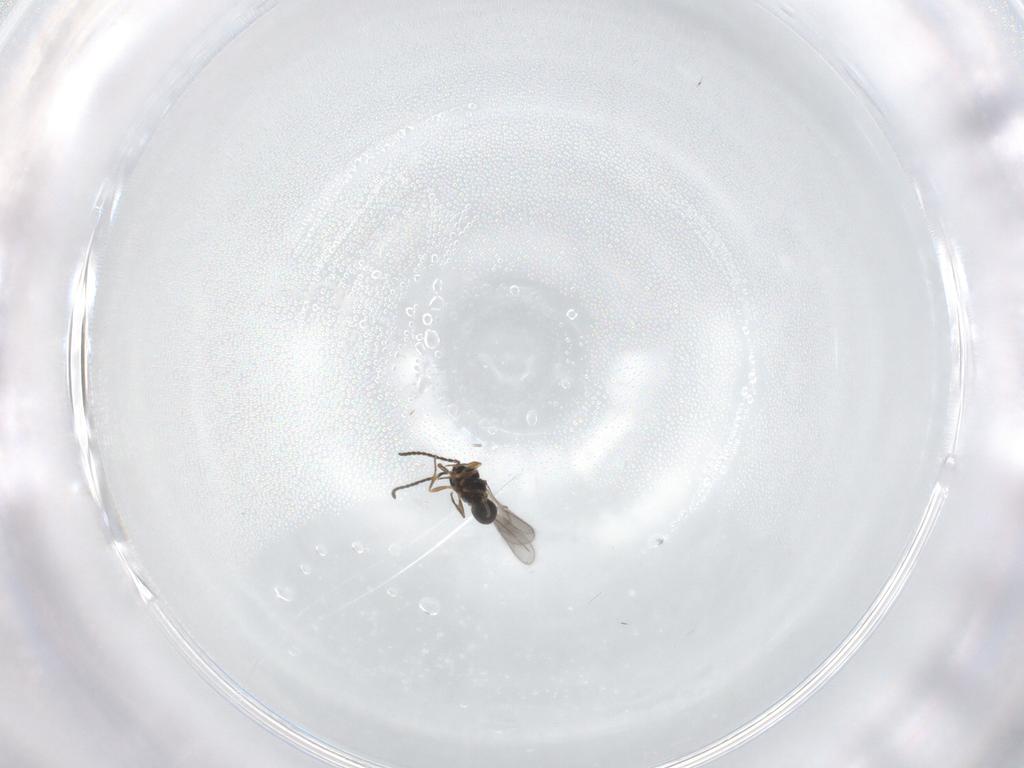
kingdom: Animalia
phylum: Arthropoda
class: Insecta
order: Hymenoptera
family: Scelionidae
